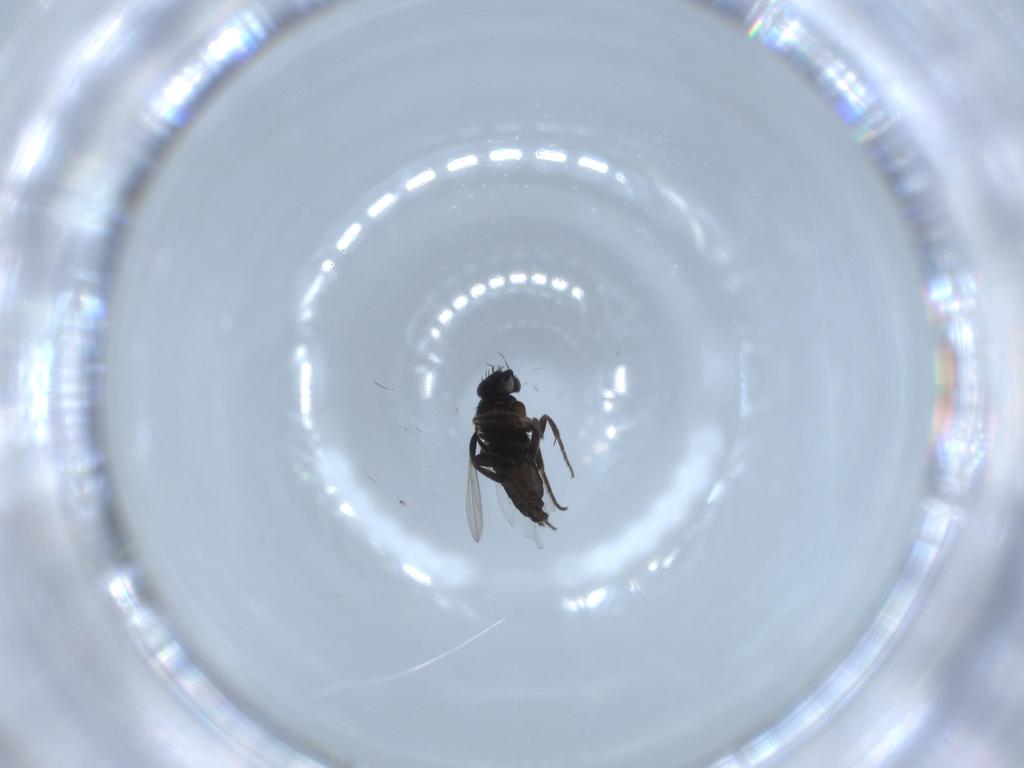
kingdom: Animalia
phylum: Arthropoda
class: Insecta
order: Diptera
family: Phoridae
